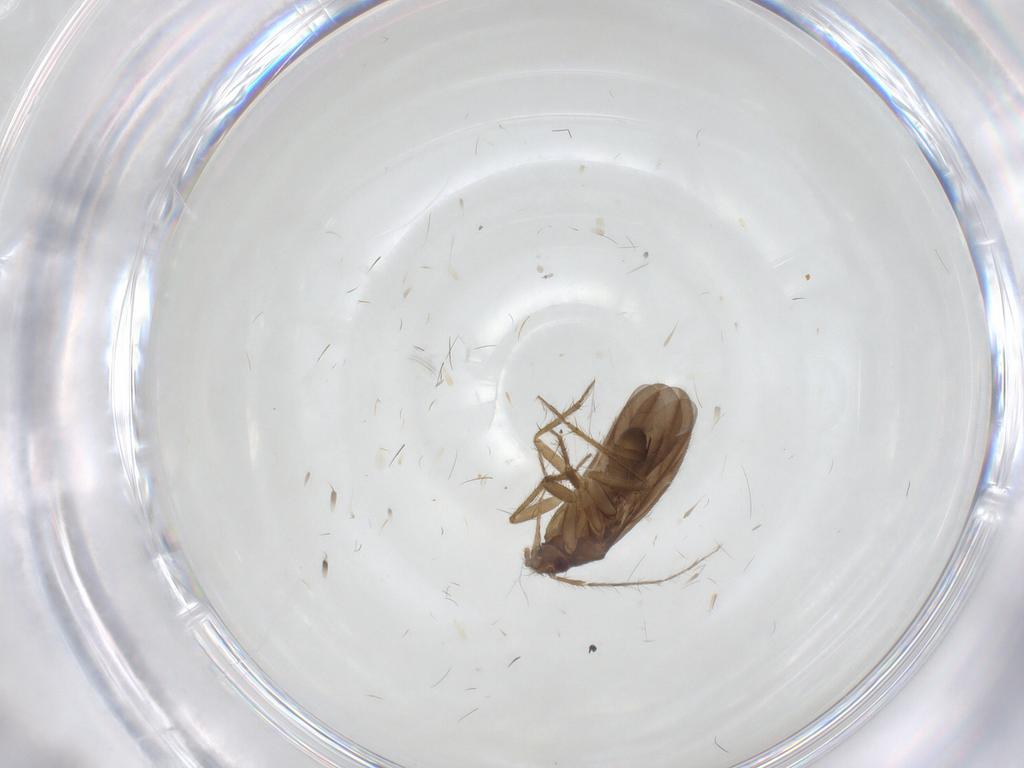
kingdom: Animalia
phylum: Arthropoda
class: Insecta
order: Hemiptera
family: Ceratocombidae
